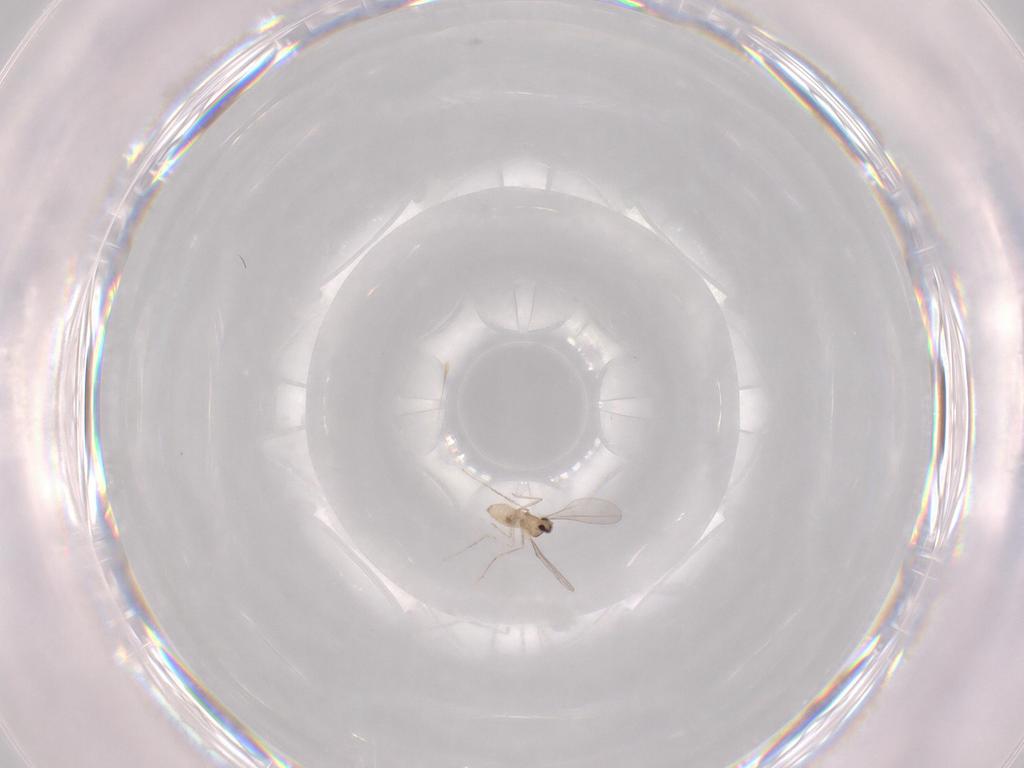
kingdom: Animalia
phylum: Arthropoda
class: Insecta
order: Diptera
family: Cecidomyiidae
